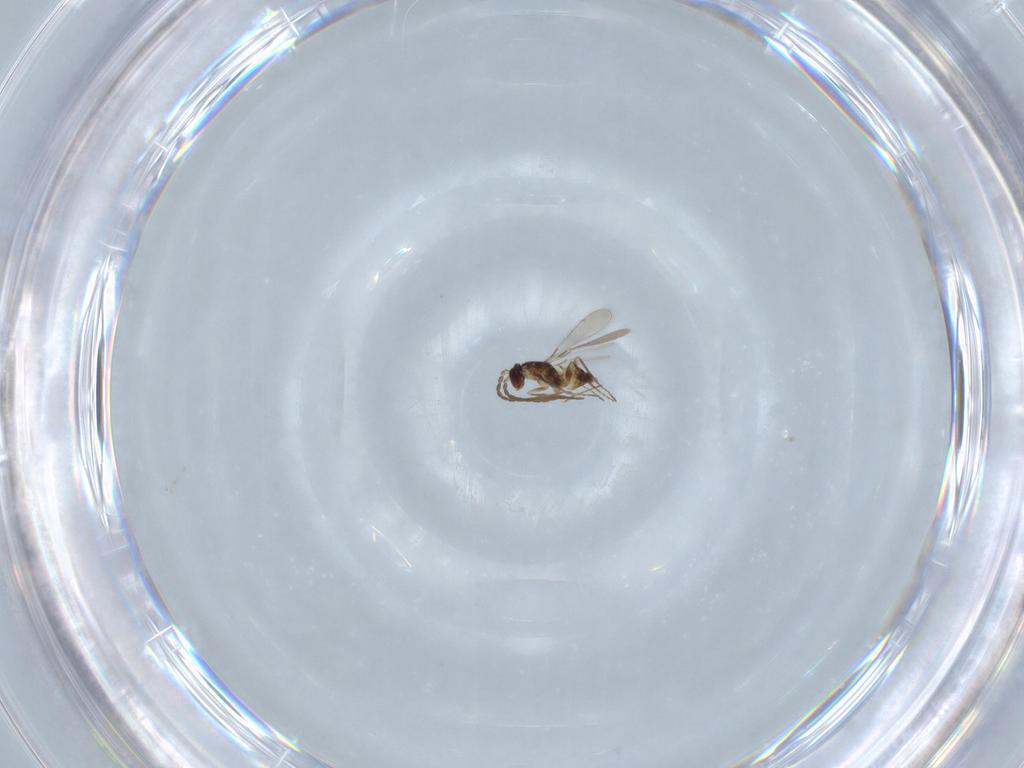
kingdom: Animalia
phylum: Arthropoda
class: Insecta
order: Hymenoptera
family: Mymaridae
